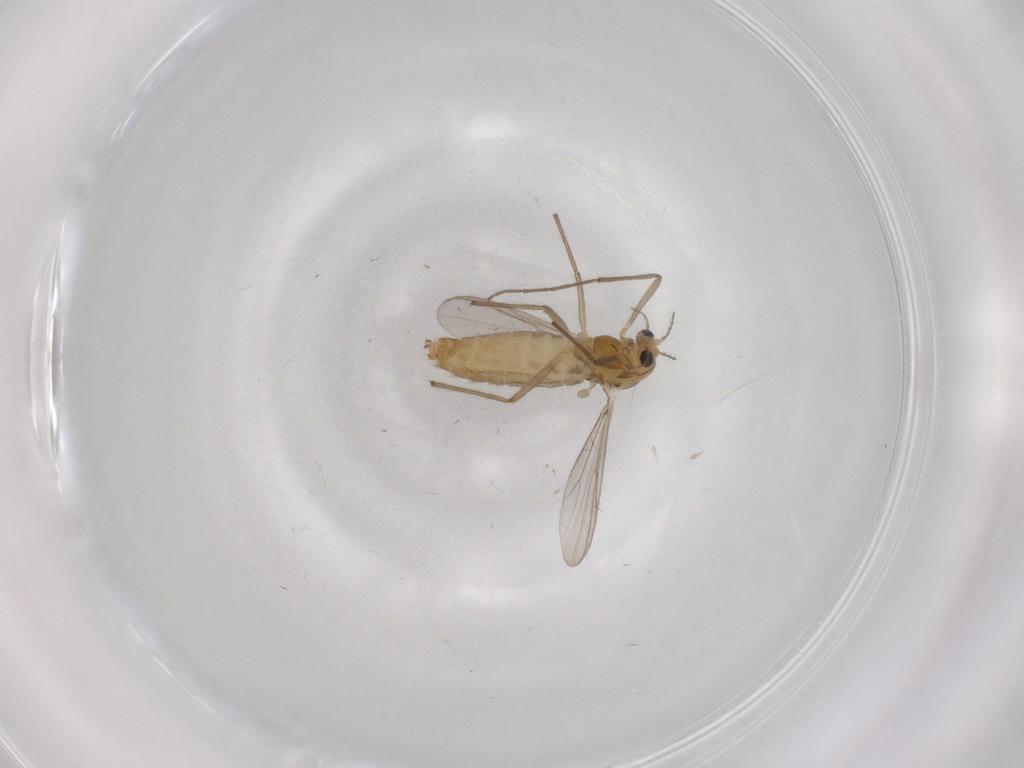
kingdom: Animalia
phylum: Arthropoda
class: Insecta
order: Diptera
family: Chironomidae
